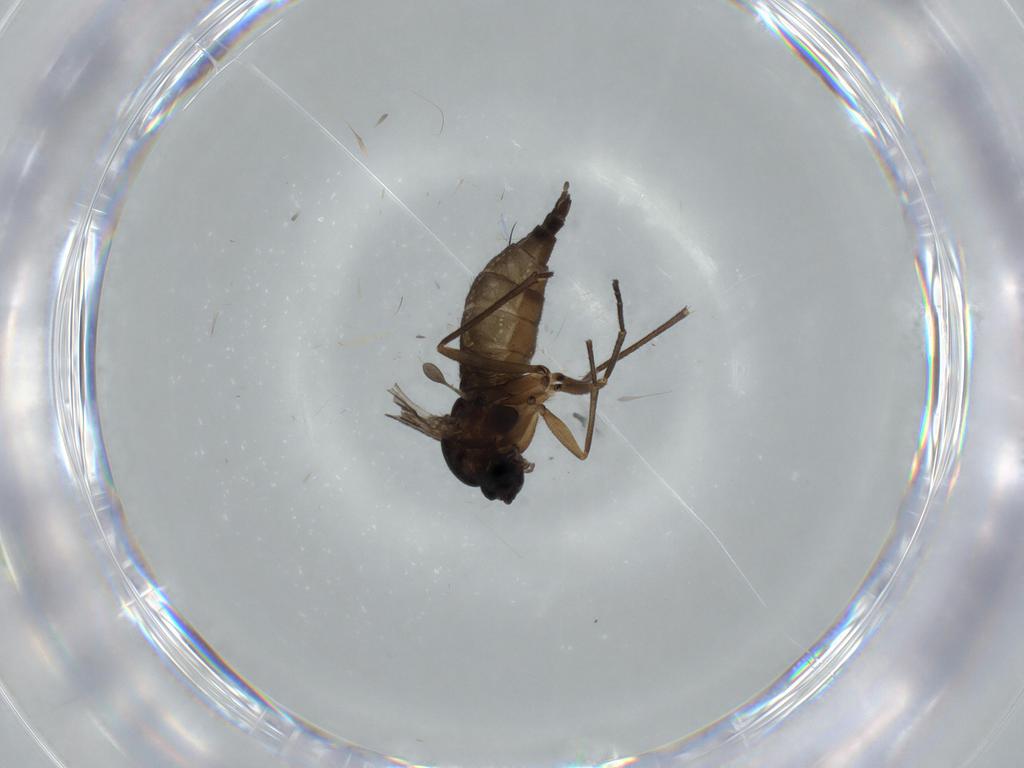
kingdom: Animalia
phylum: Arthropoda
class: Insecta
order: Diptera
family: Sciaridae
